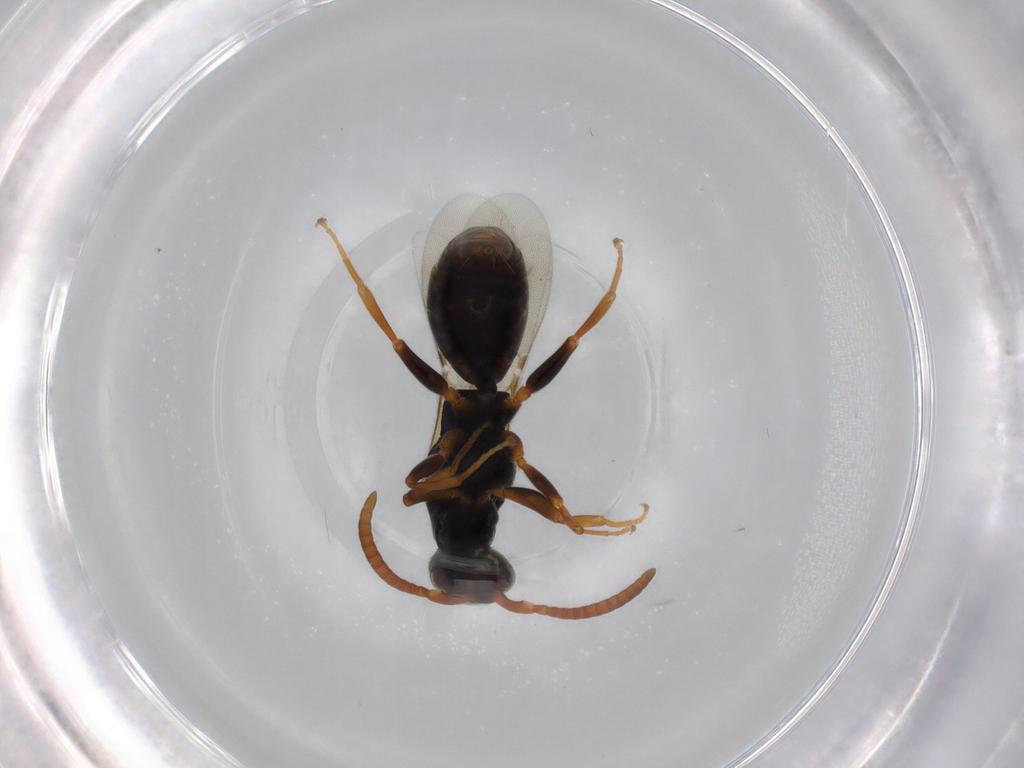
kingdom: Animalia
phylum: Arthropoda
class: Insecta
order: Hymenoptera
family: Bethylidae
